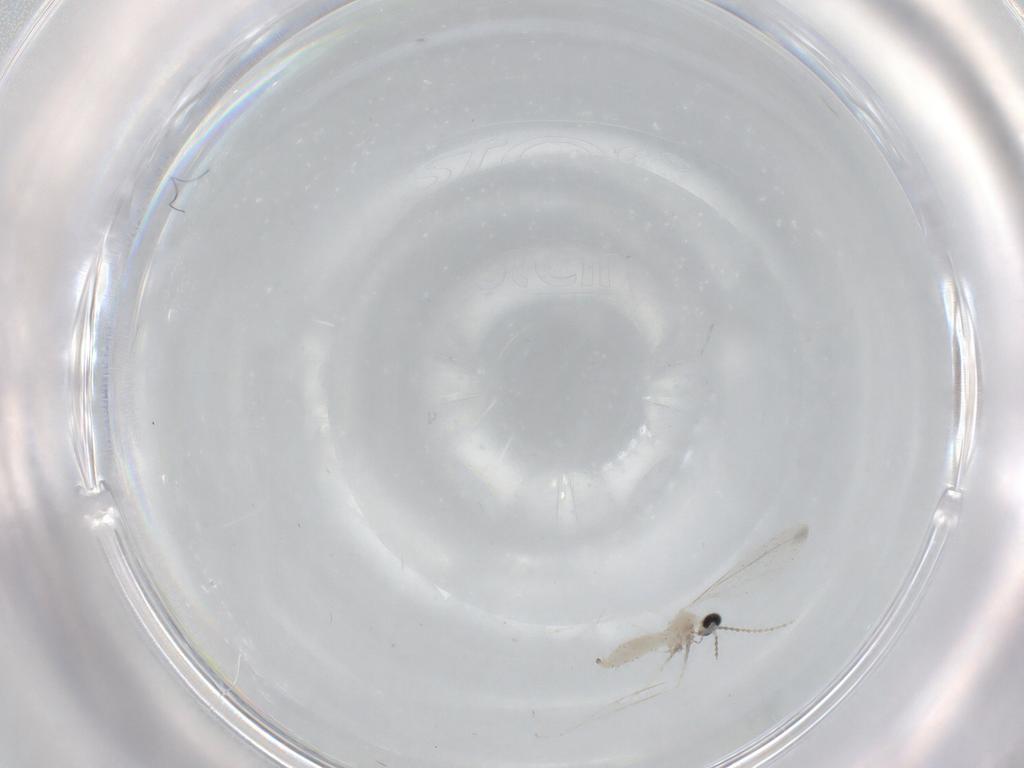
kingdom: Animalia
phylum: Arthropoda
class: Insecta
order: Diptera
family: Cecidomyiidae
